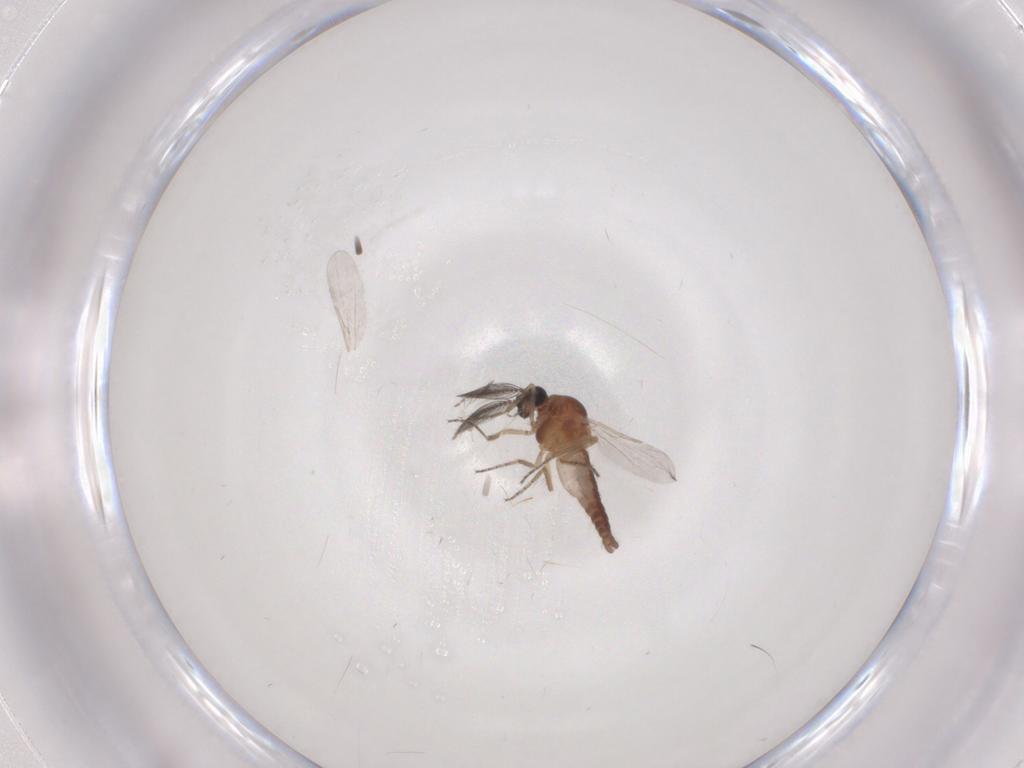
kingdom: Animalia
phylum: Arthropoda
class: Insecta
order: Diptera
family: Ceratopogonidae
